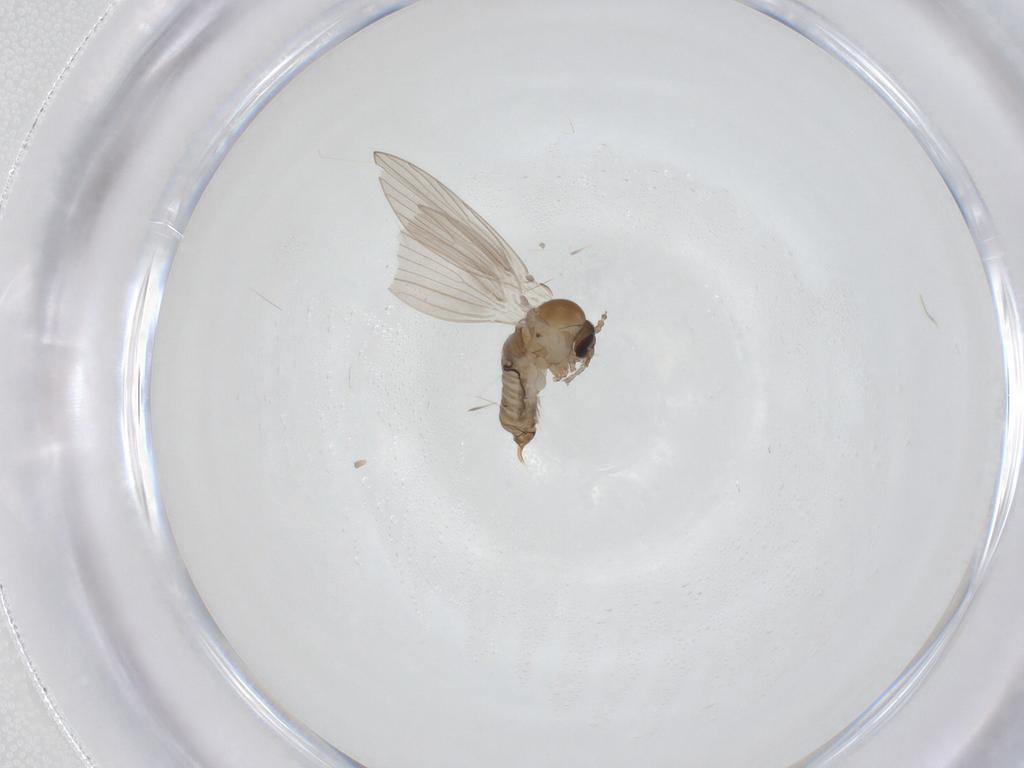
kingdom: Animalia
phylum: Arthropoda
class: Insecta
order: Diptera
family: Psychodidae
